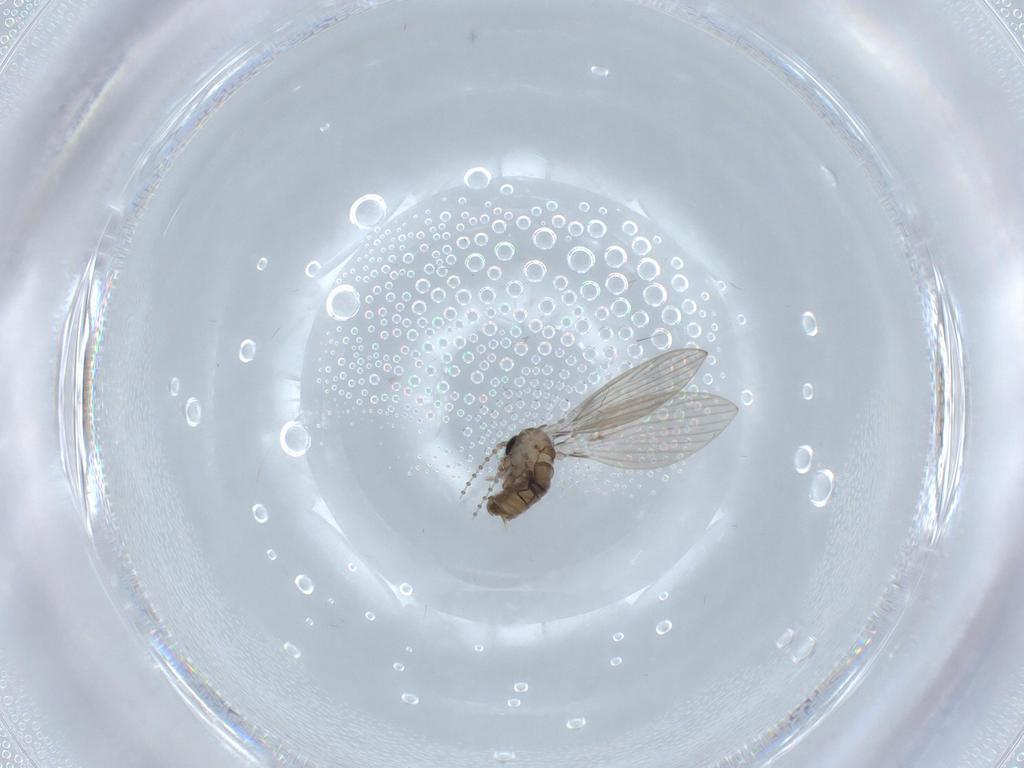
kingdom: Animalia
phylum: Arthropoda
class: Insecta
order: Diptera
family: Psychodidae
